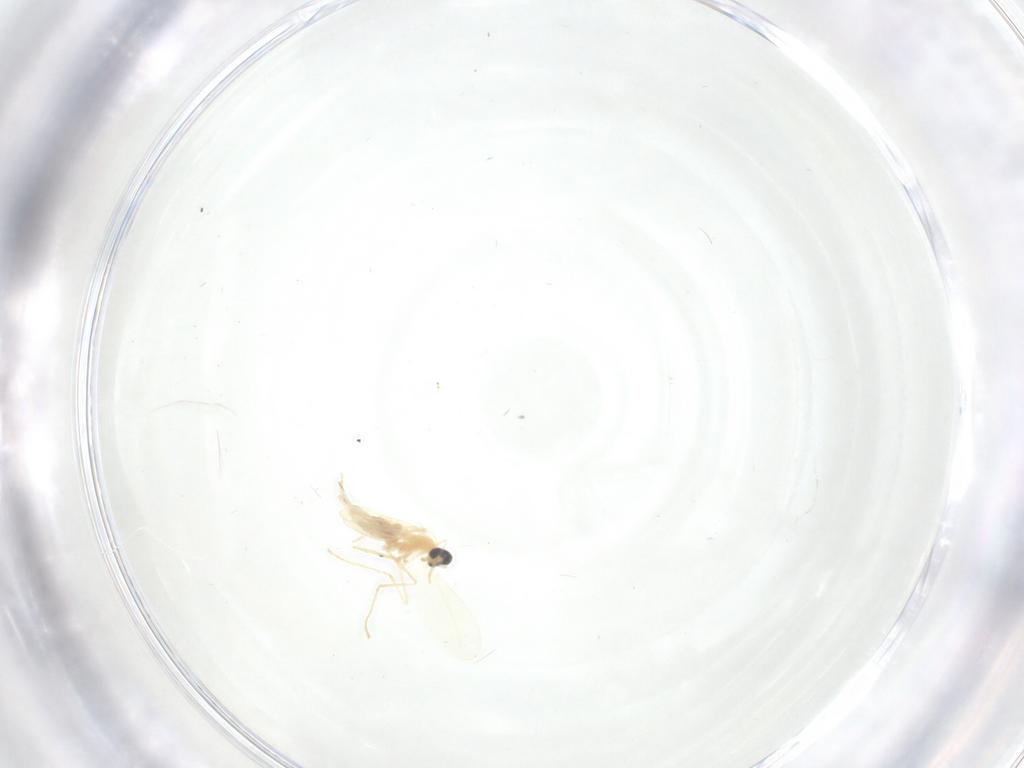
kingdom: Animalia
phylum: Arthropoda
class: Insecta
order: Diptera
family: Cecidomyiidae
